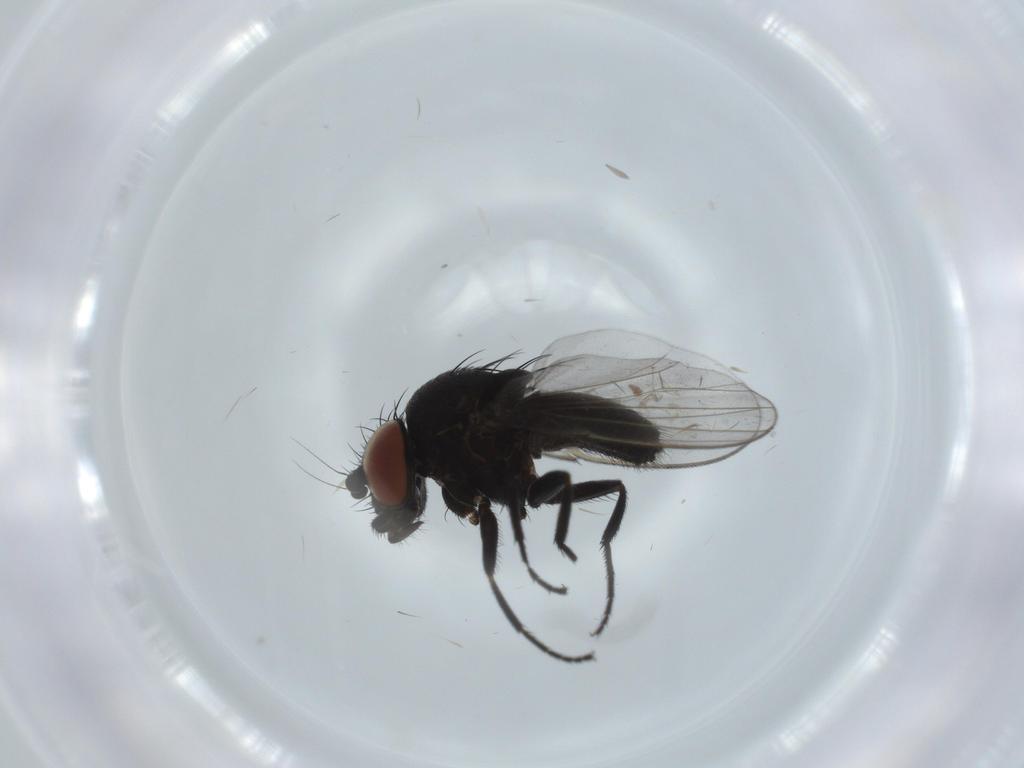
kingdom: Animalia
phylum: Arthropoda
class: Insecta
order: Diptera
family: Milichiidae
